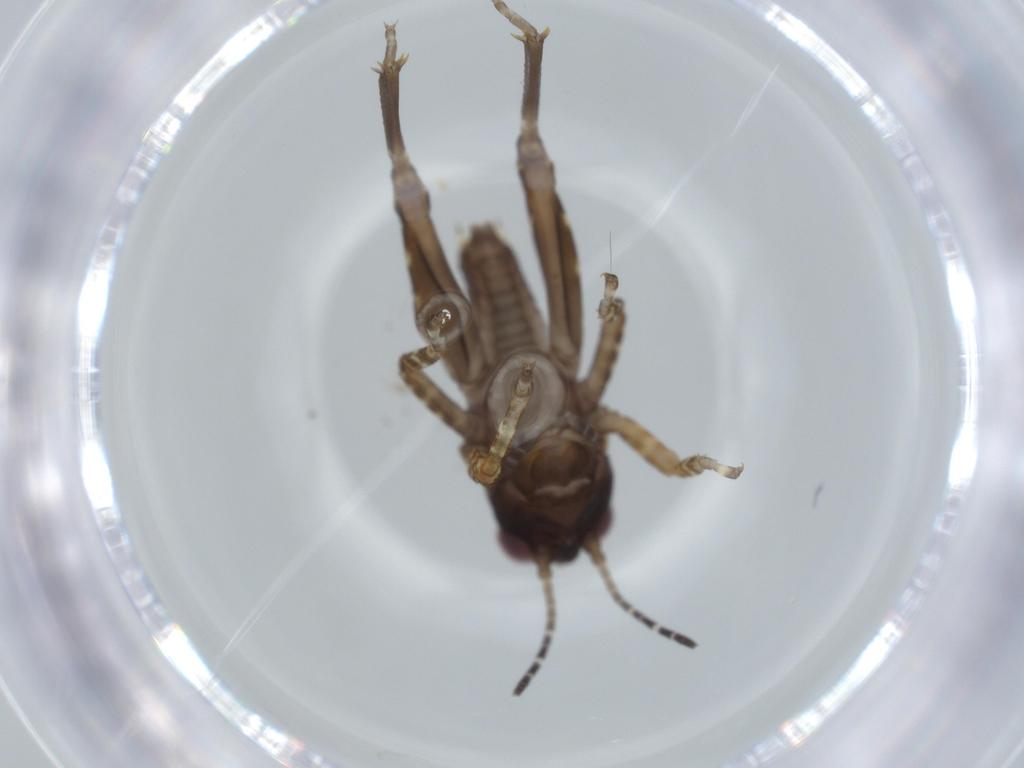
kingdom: Animalia
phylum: Arthropoda
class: Insecta
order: Orthoptera
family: Tetrigidae
